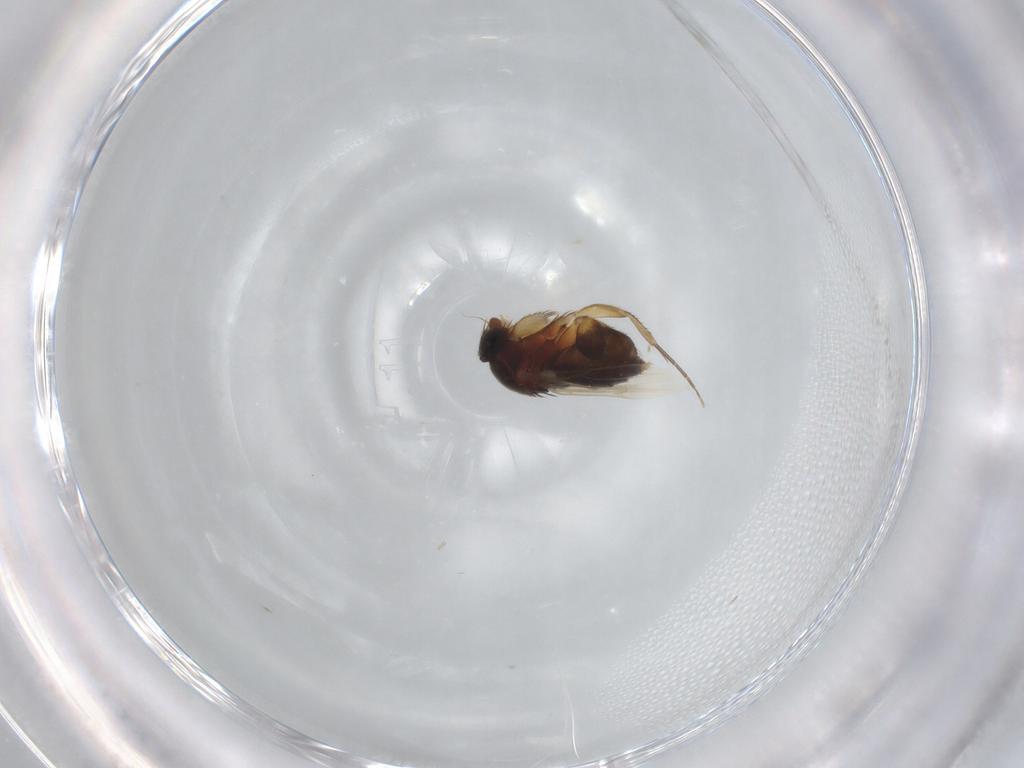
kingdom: Animalia
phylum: Arthropoda
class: Insecta
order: Diptera
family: Phoridae
